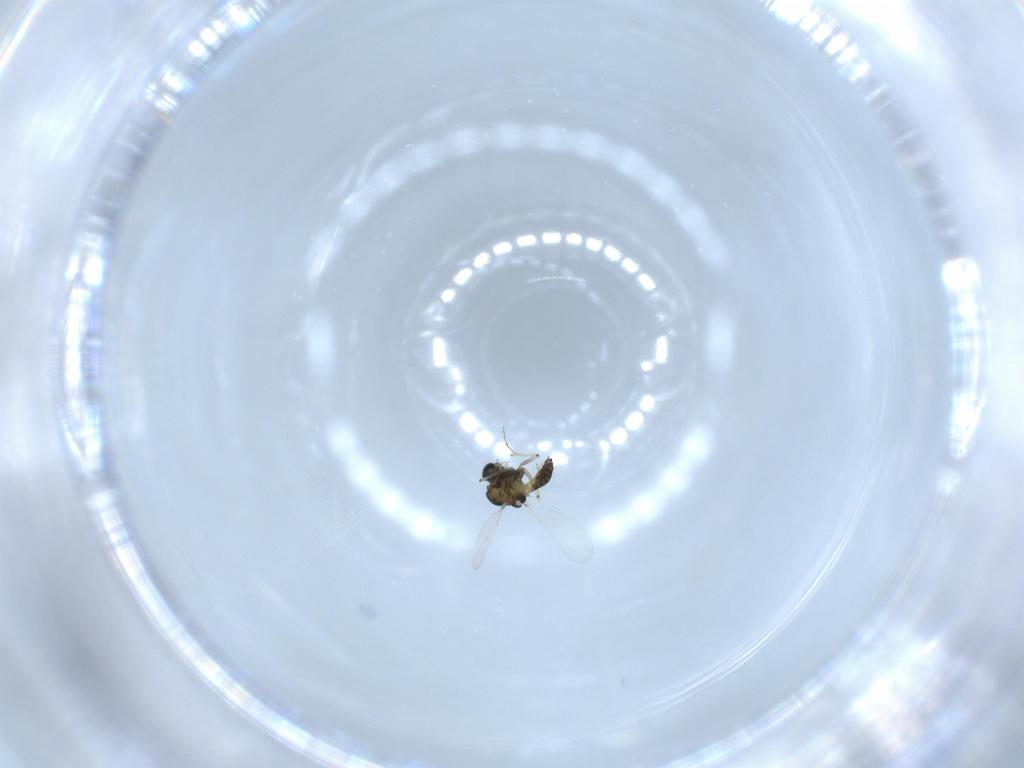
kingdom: Animalia
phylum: Arthropoda
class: Insecta
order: Diptera
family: Chironomidae
